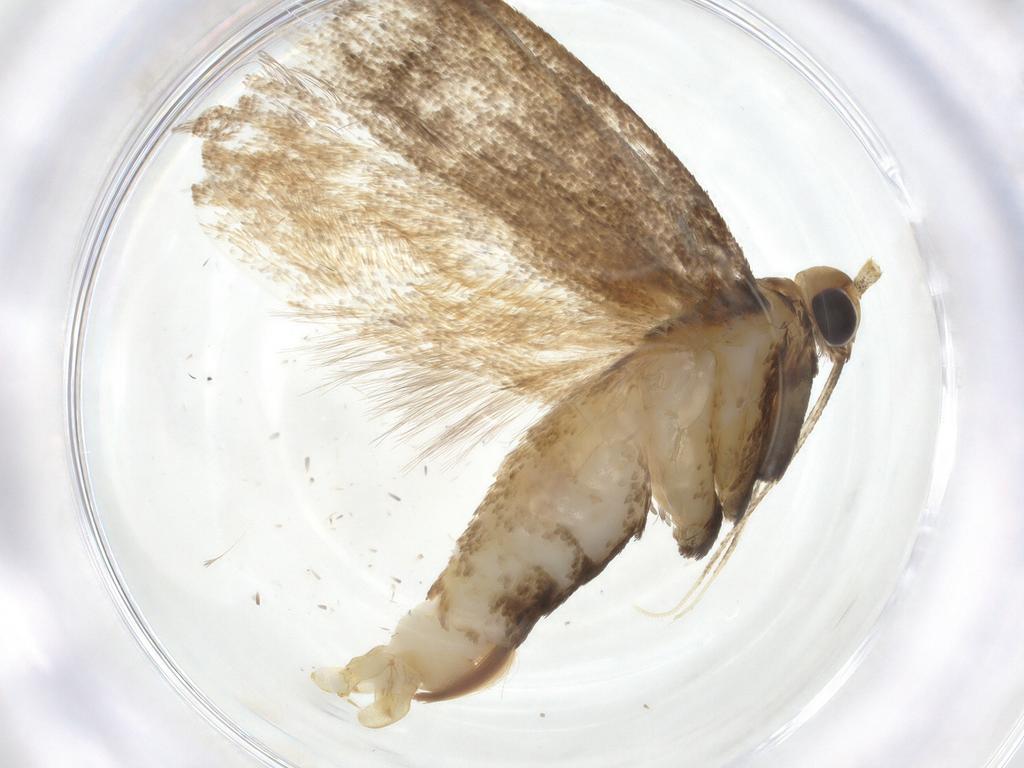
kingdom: Animalia
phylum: Arthropoda
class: Insecta
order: Lepidoptera
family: Lecithoceridae
